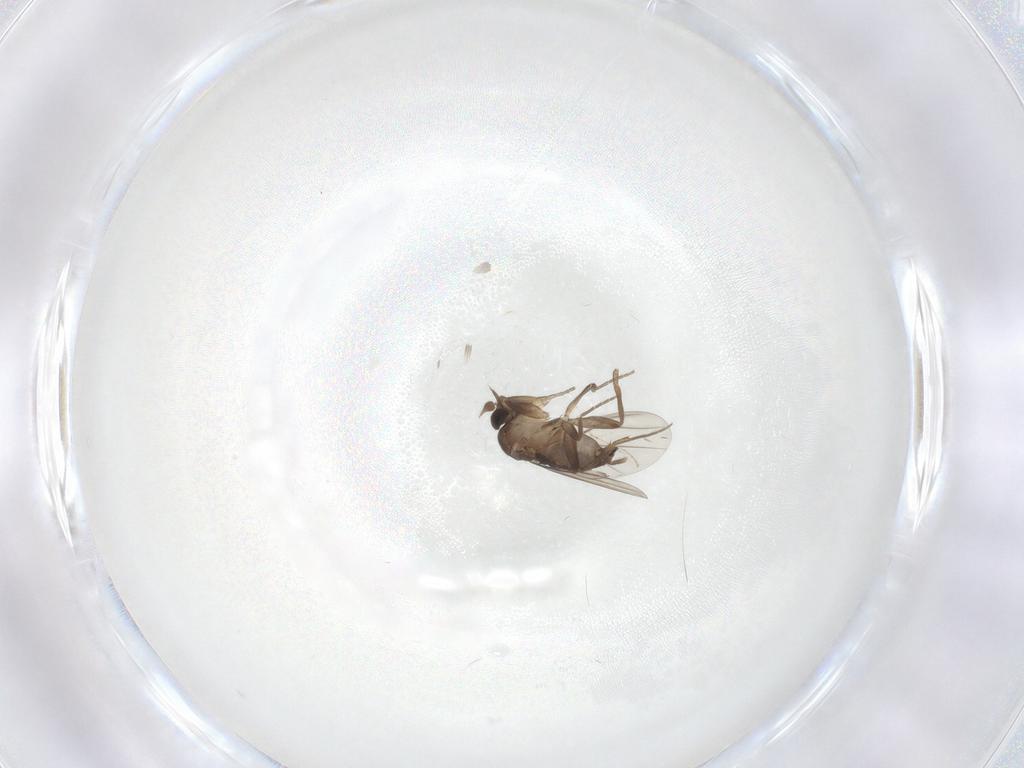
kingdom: Animalia
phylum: Arthropoda
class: Insecta
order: Diptera
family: Phoridae
